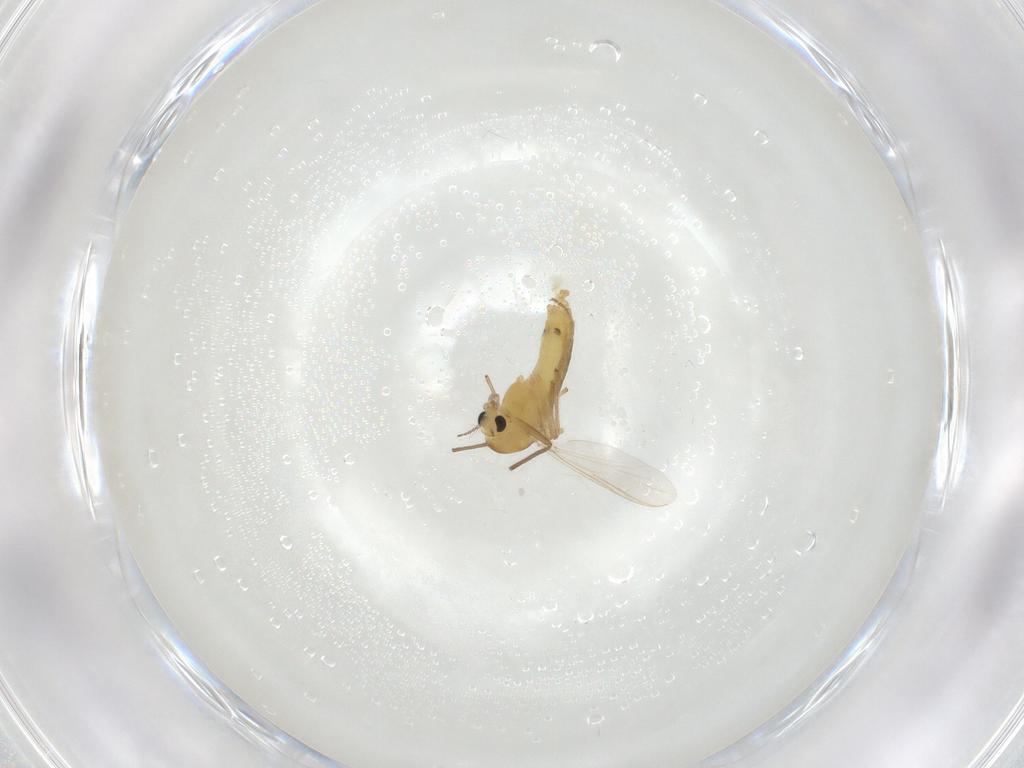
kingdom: Animalia
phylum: Arthropoda
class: Insecta
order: Diptera
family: Chironomidae
